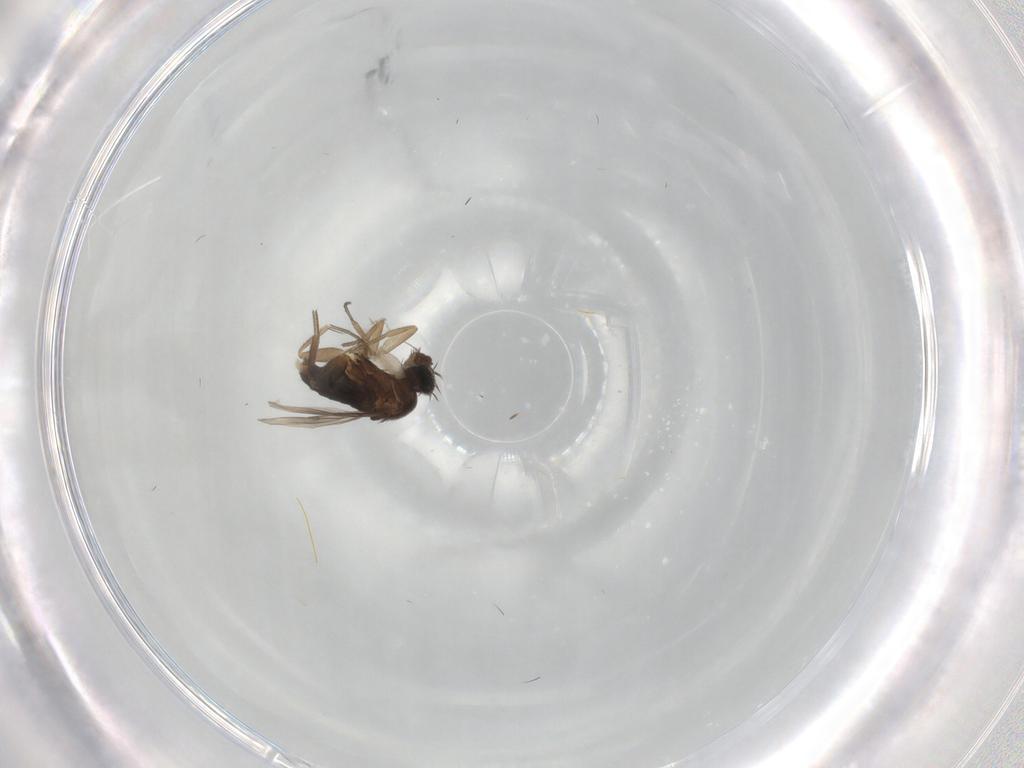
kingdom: Animalia
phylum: Arthropoda
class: Insecta
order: Diptera
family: Phoridae
